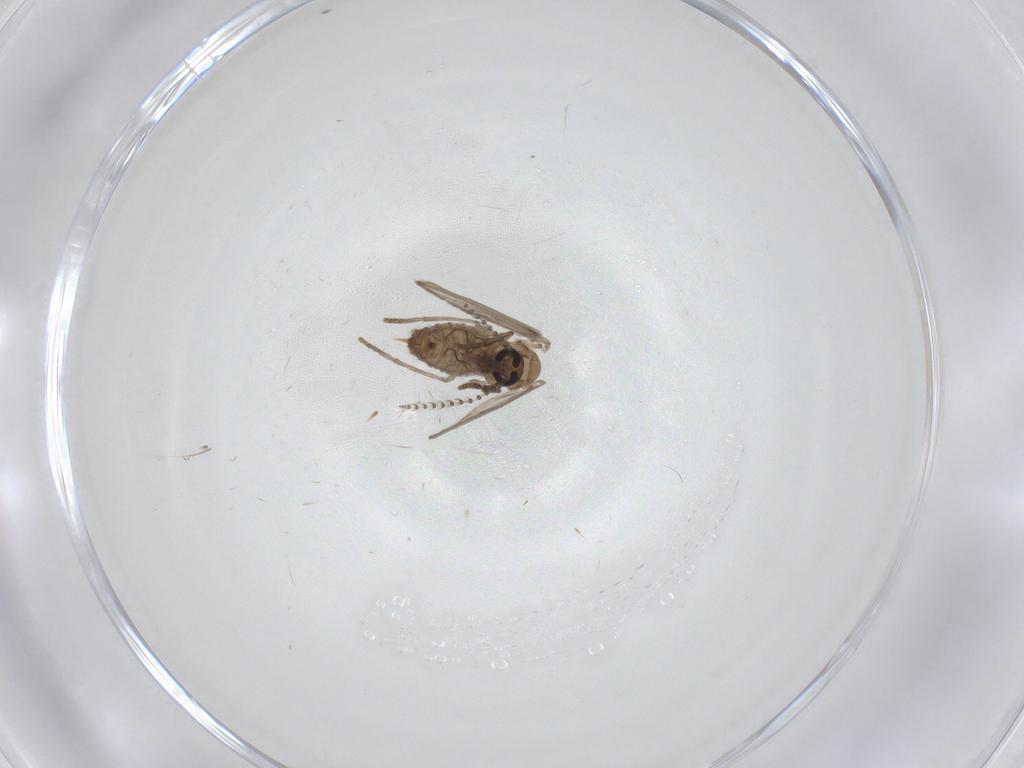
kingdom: Animalia
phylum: Arthropoda
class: Insecta
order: Diptera
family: Psychodidae
